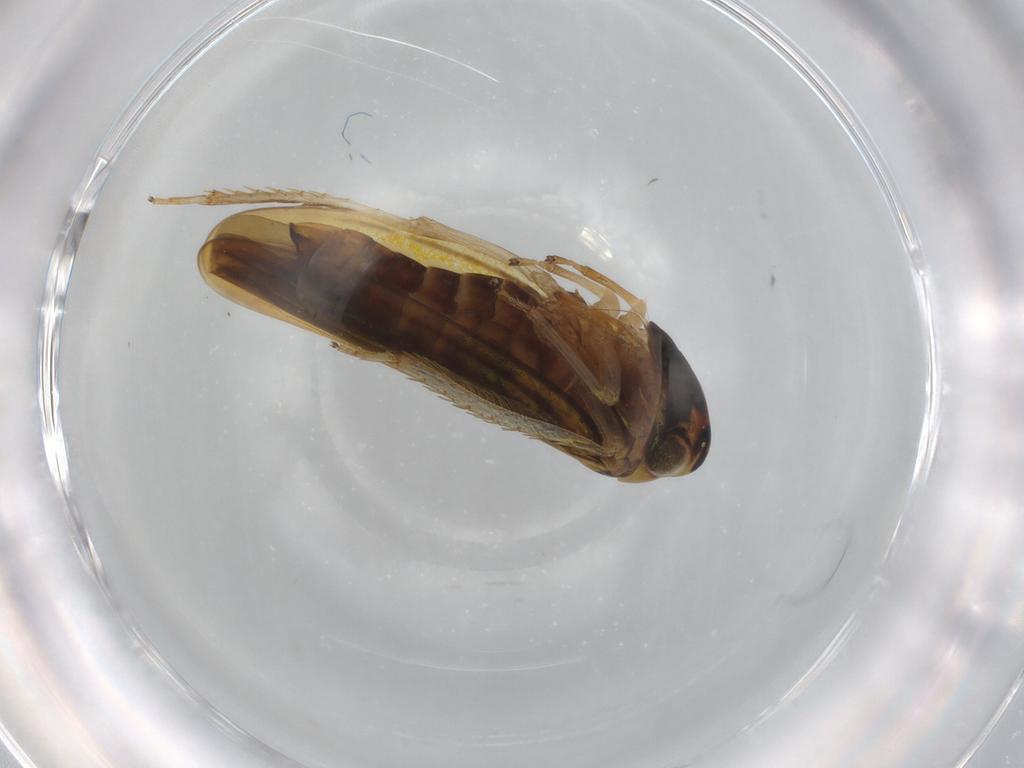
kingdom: Animalia
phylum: Arthropoda
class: Insecta
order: Hemiptera
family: Cicadellidae
